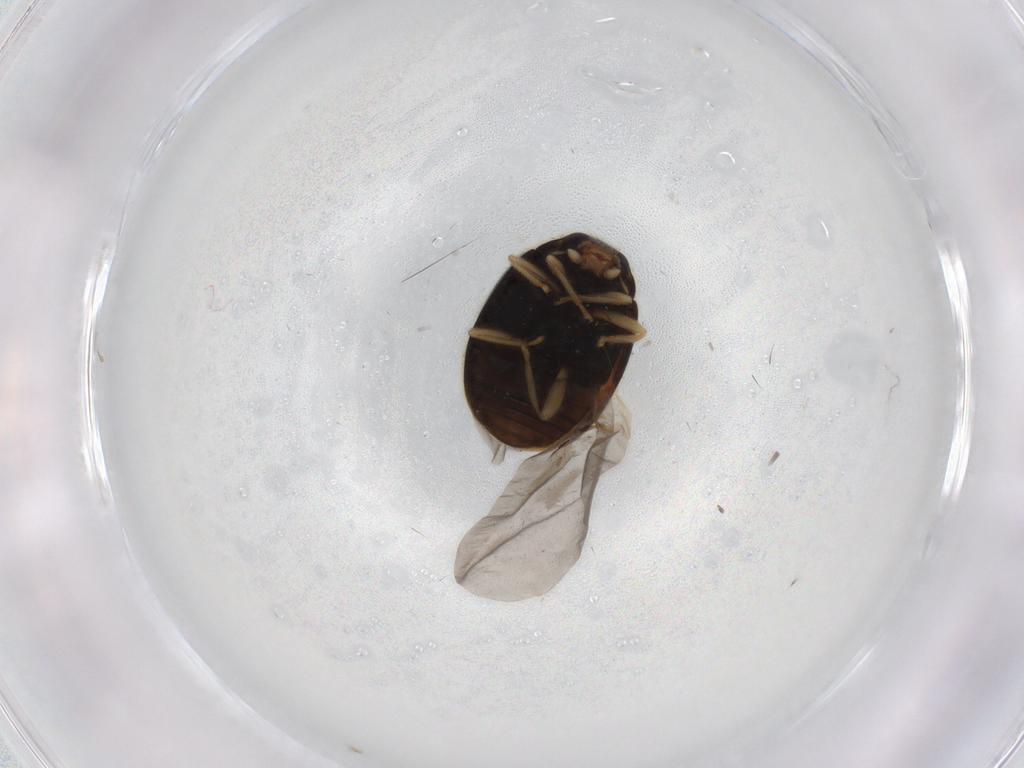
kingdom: Animalia
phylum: Arthropoda
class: Insecta
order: Coleoptera
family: Coccinellidae
